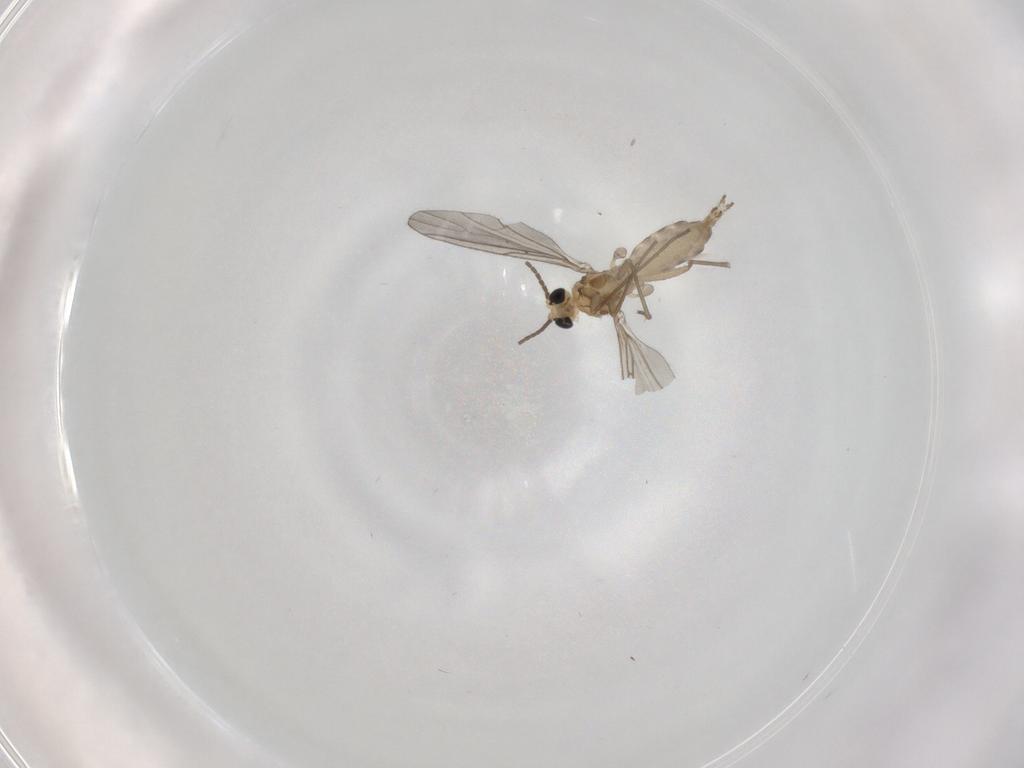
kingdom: Animalia
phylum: Arthropoda
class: Insecta
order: Diptera
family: Sciaridae
